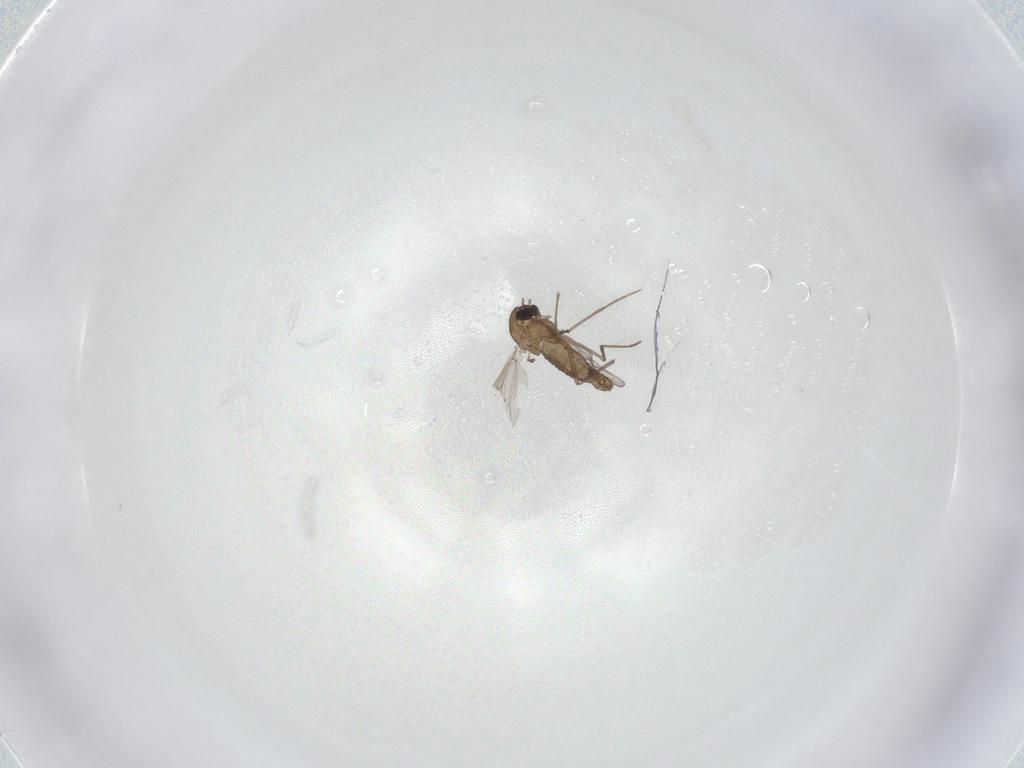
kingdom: Animalia
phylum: Arthropoda
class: Insecta
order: Diptera
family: Chironomidae
